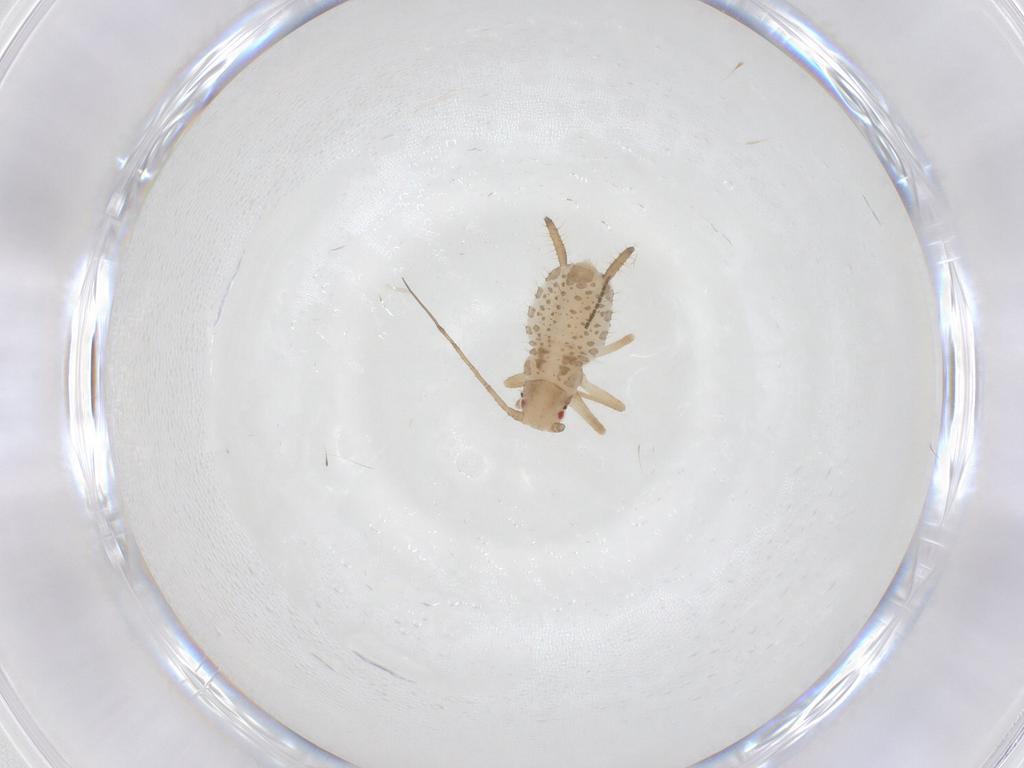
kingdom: Animalia
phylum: Arthropoda
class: Insecta
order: Hemiptera
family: Aphididae
